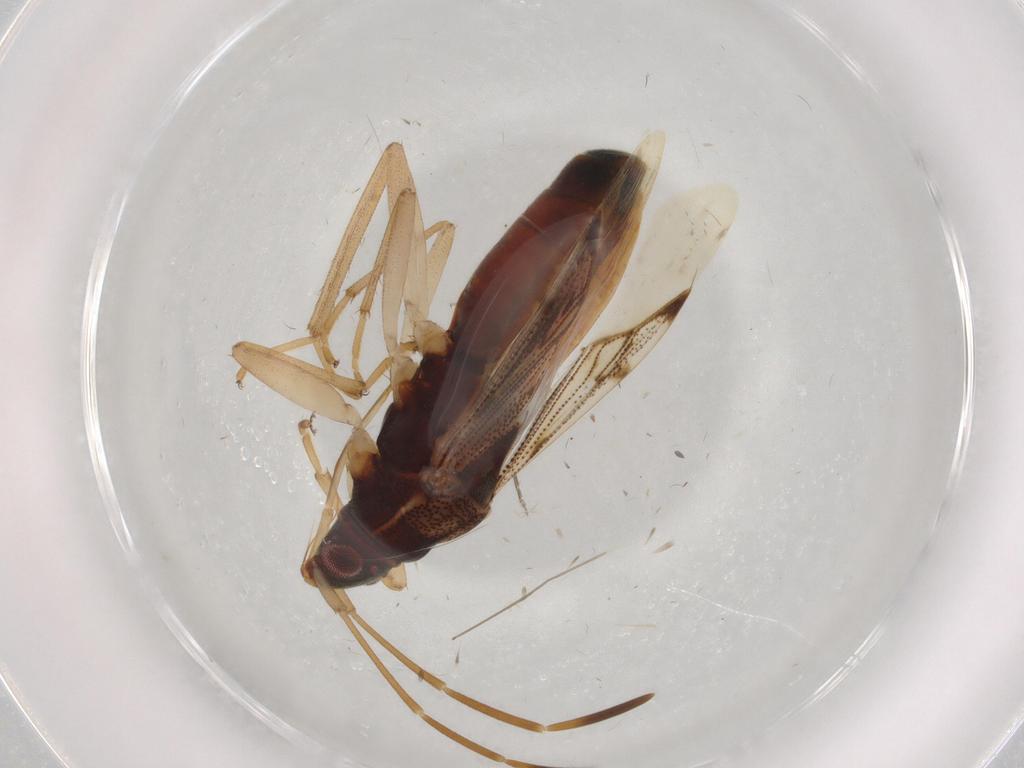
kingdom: Animalia
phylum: Arthropoda
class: Insecta
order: Hemiptera
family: Rhyparochromidae
